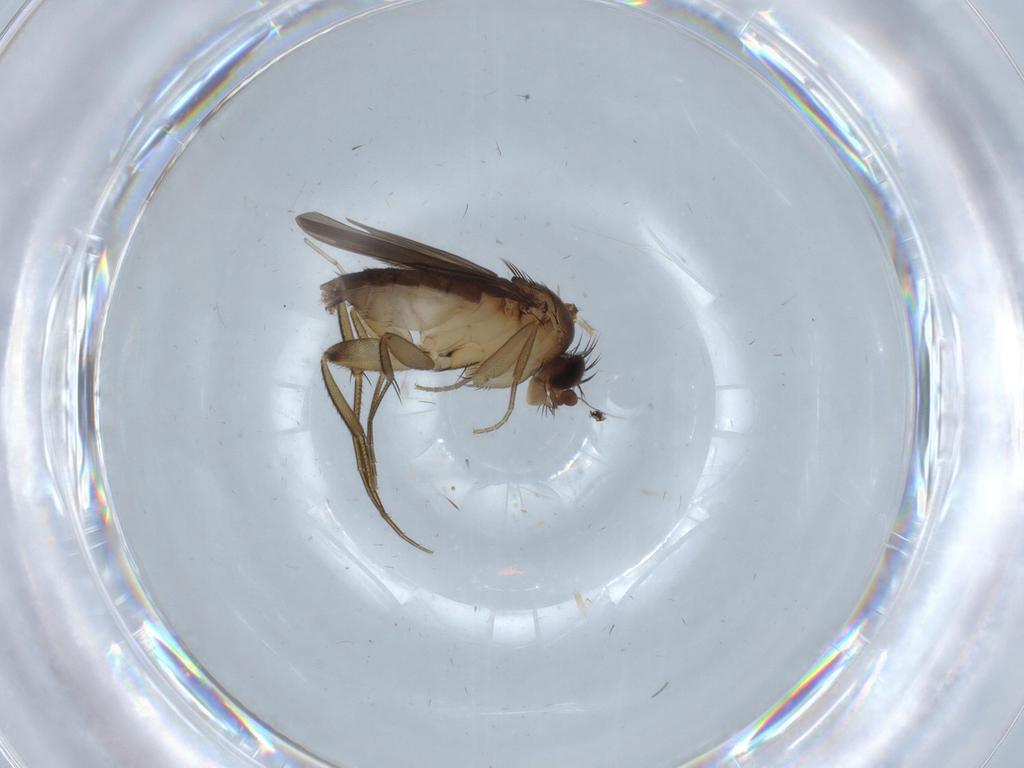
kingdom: Animalia
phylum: Arthropoda
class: Insecta
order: Diptera
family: Phoridae
